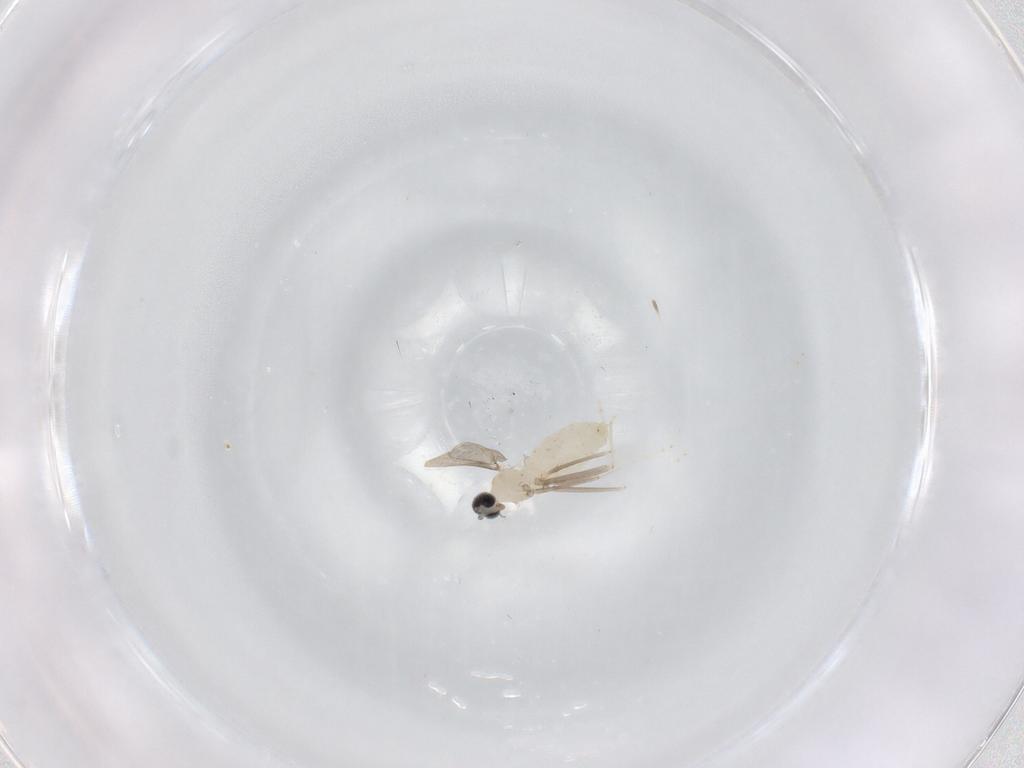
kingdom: Animalia
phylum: Arthropoda
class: Insecta
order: Diptera
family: Cecidomyiidae
